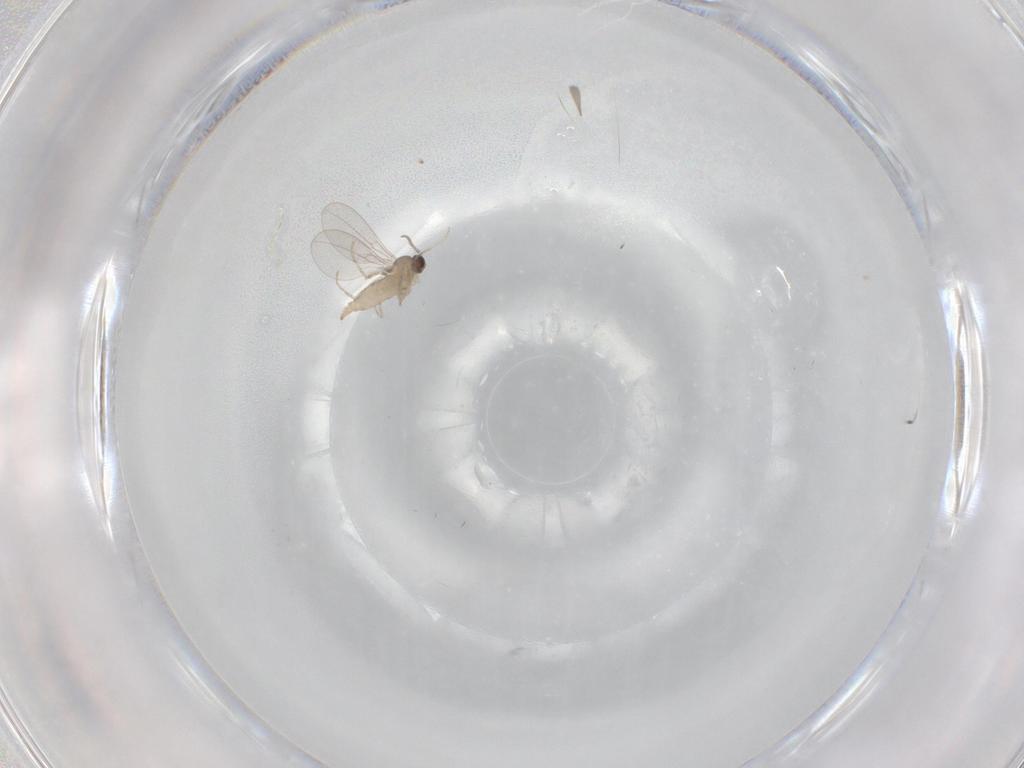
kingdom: Animalia
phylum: Arthropoda
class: Insecta
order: Diptera
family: Cecidomyiidae
